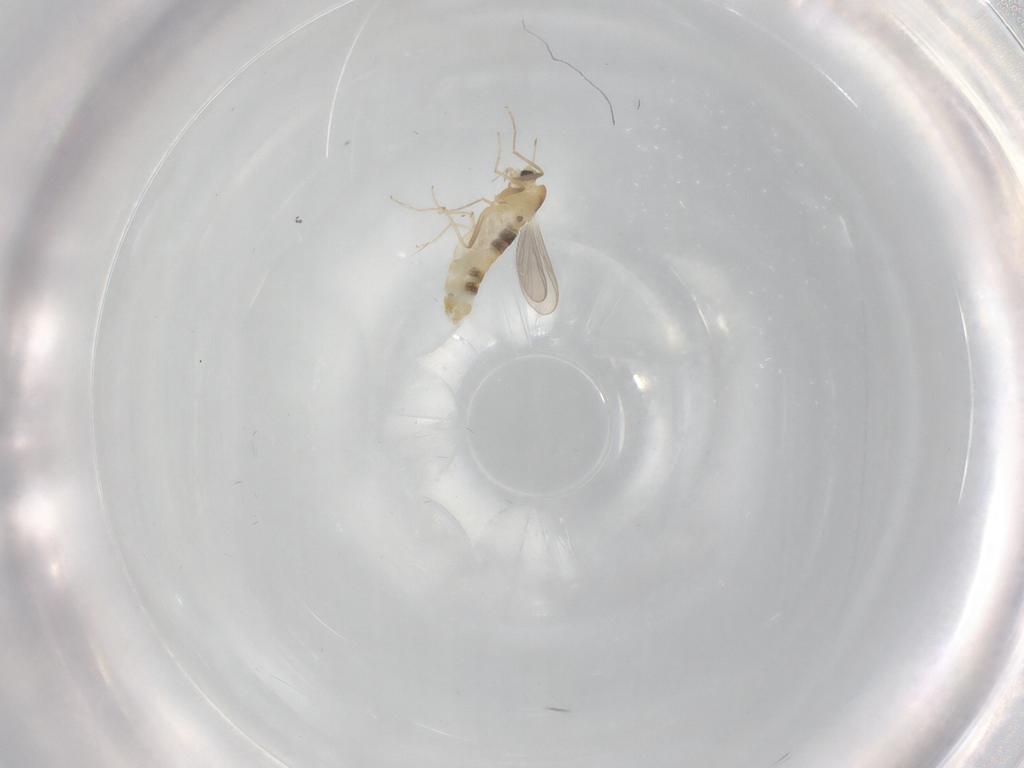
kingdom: Animalia
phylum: Arthropoda
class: Insecta
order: Diptera
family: Chironomidae
